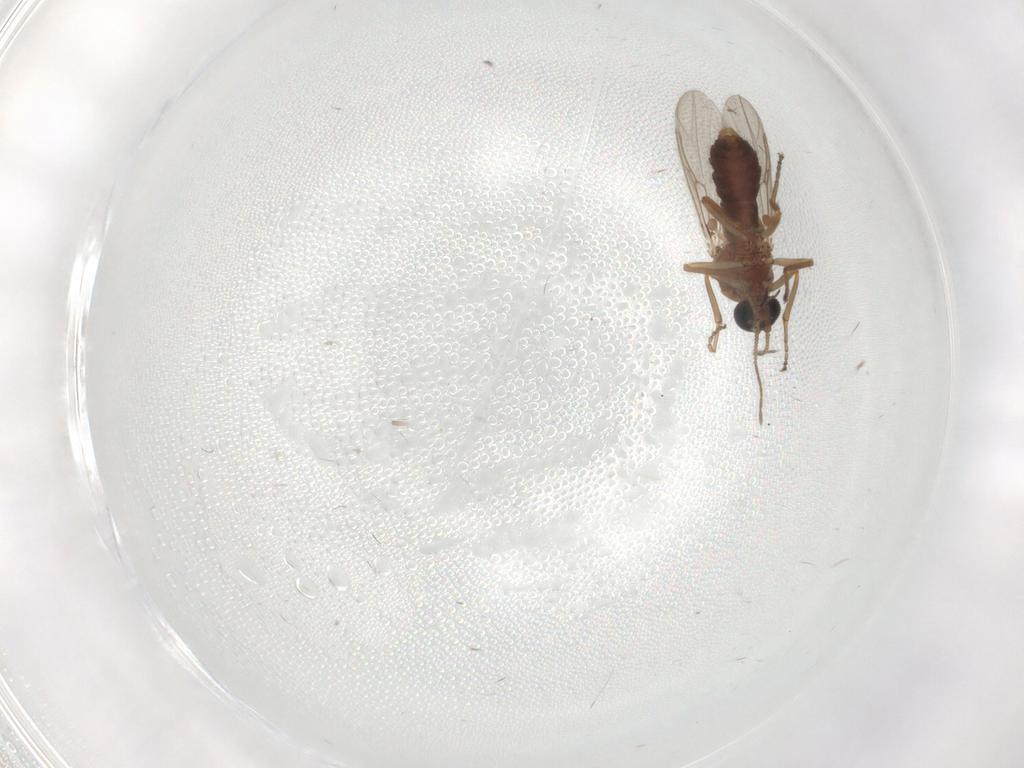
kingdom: Animalia
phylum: Arthropoda
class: Insecta
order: Diptera
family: Ceratopogonidae
